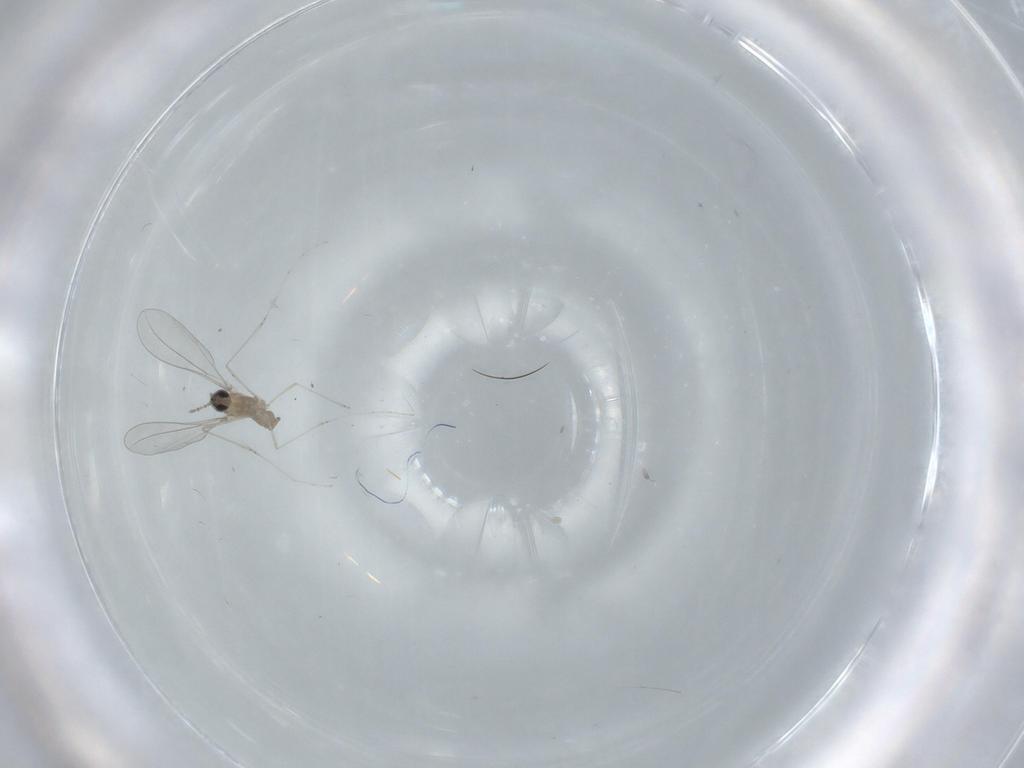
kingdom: Animalia
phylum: Arthropoda
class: Insecta
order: Diptera
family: Cecidomyiidae
